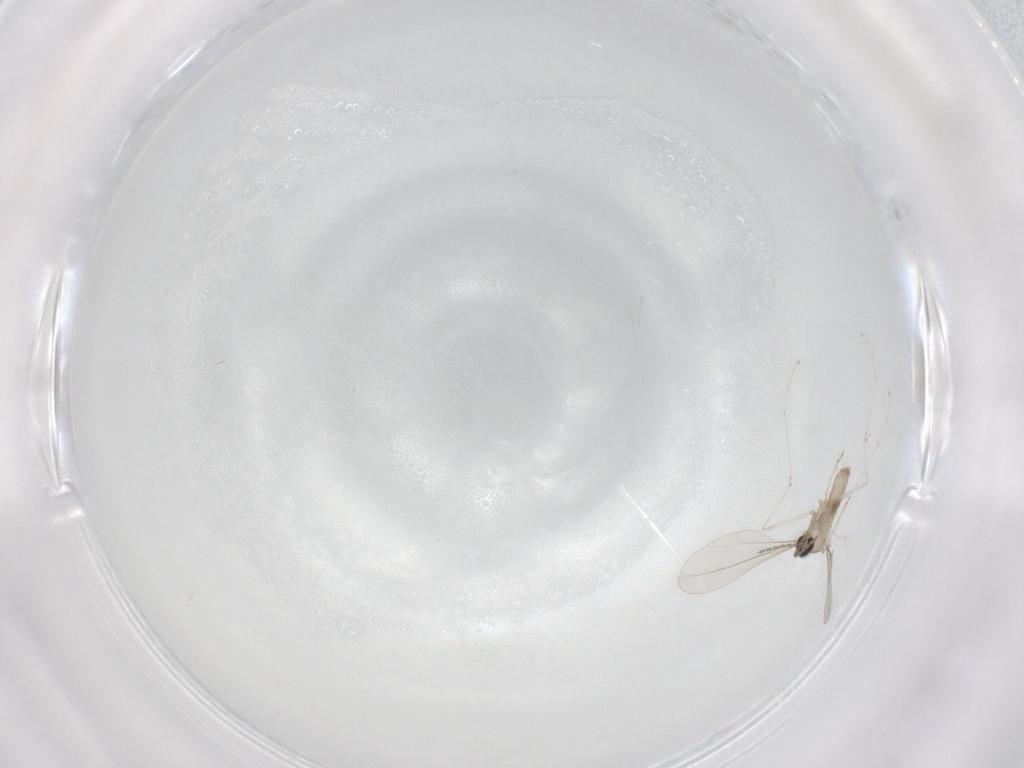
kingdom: Animalia
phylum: Arthropoda
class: Insecta
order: Diptera
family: Cecidomyiidae
